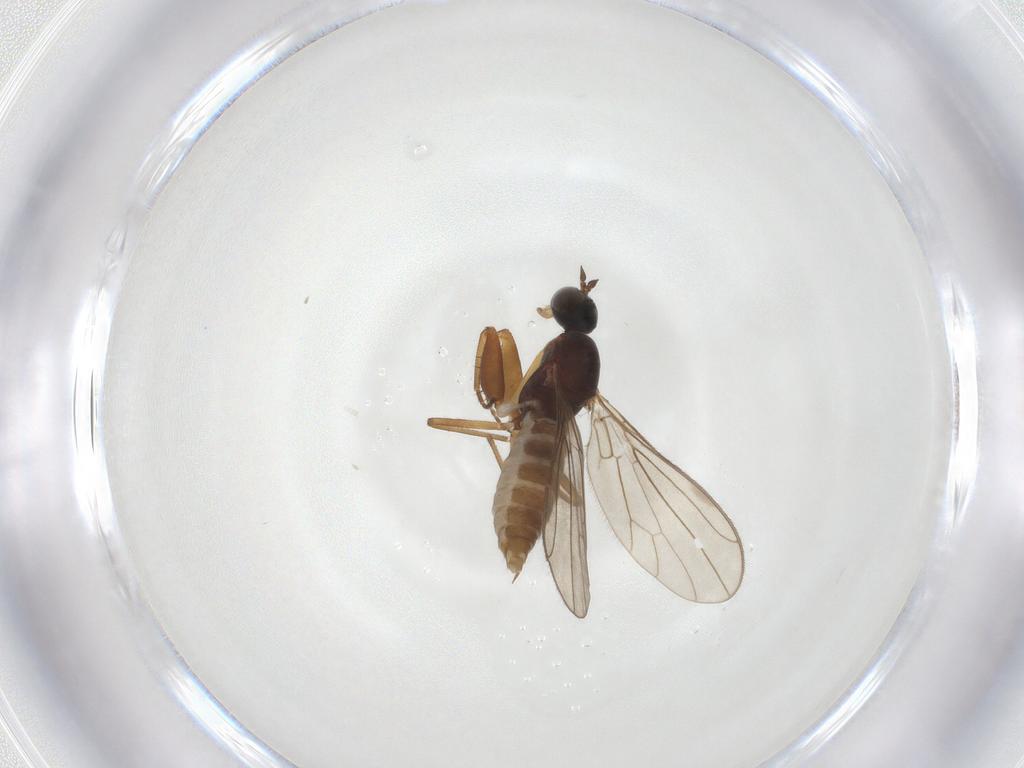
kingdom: Animalia
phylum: Arthropoda
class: Insecta
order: Diptera
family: Empididae
